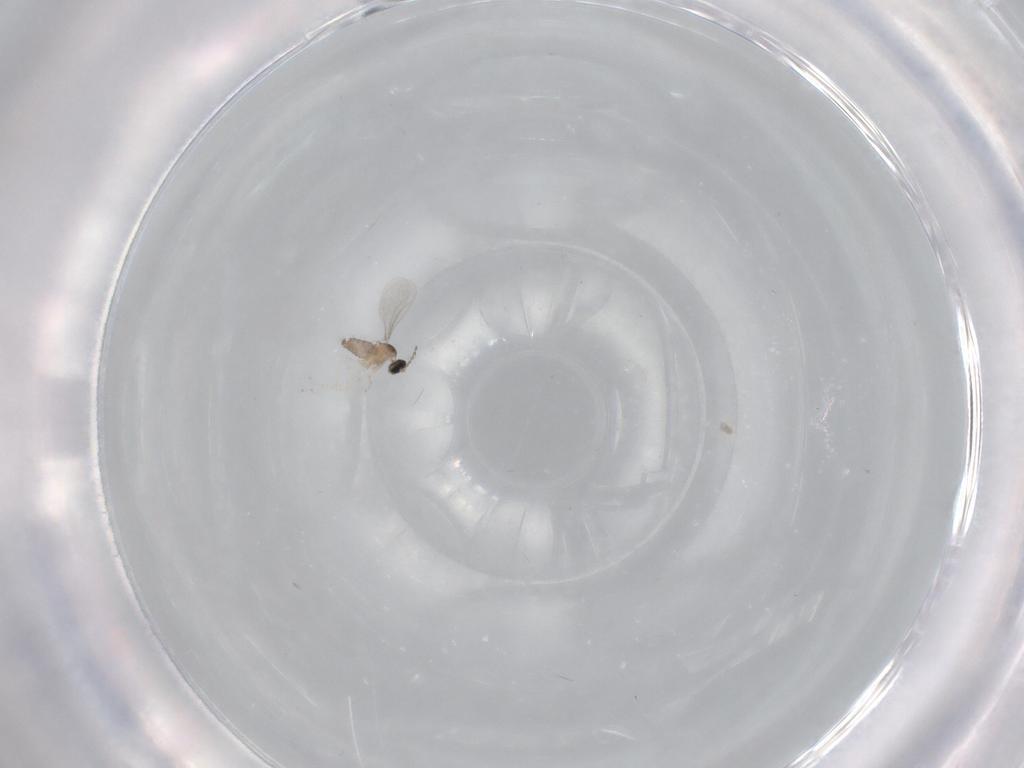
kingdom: Animalia
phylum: Arthropoda
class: Insecta
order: Diptera
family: Cecidomyiidae
